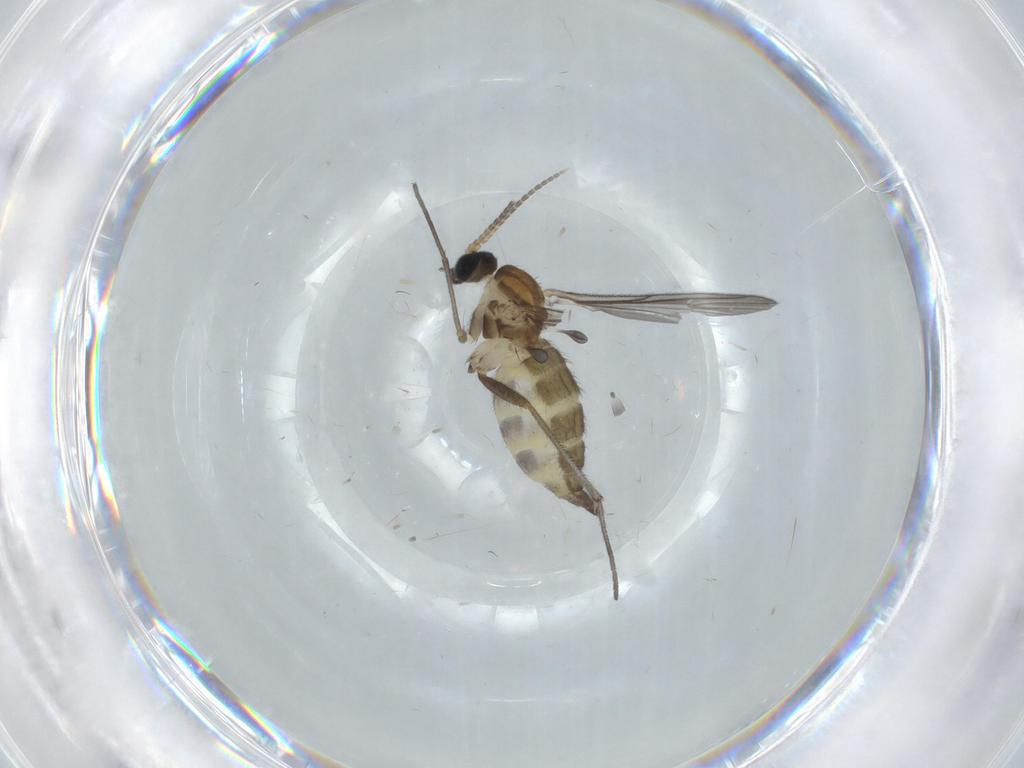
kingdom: Animalia
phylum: Arthropoda
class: Insecta
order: Diptera
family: Sciaridae
